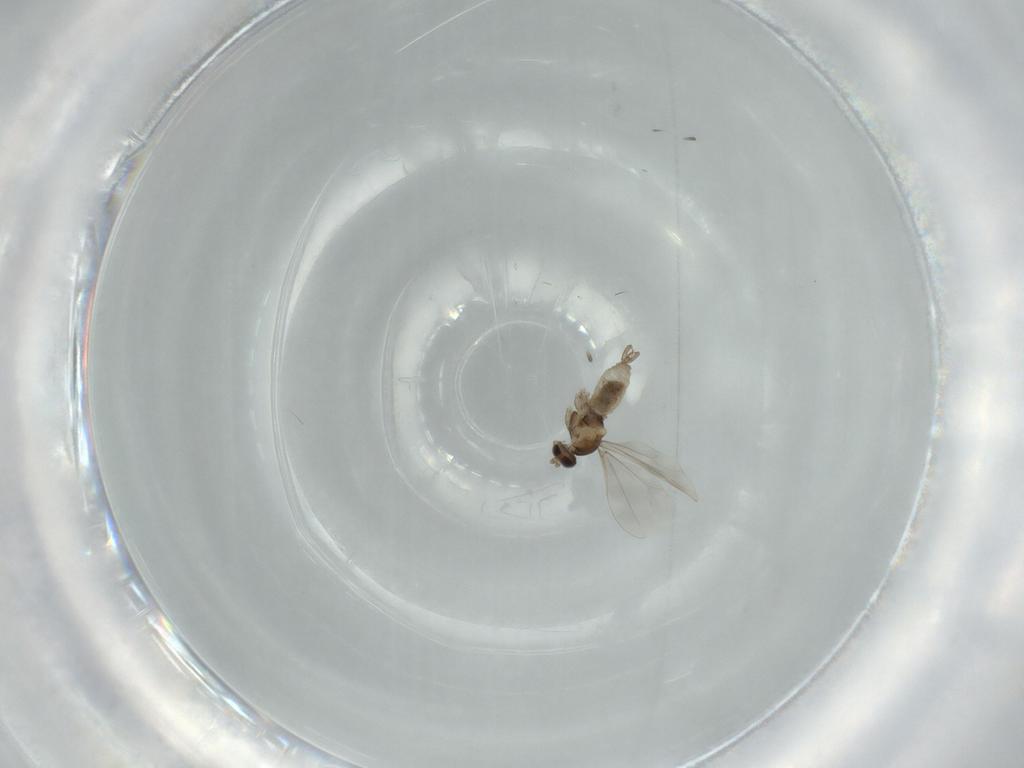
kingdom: Animalia
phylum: Arthropoda
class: Insecta
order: Diptera
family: Cecidomyiidae
